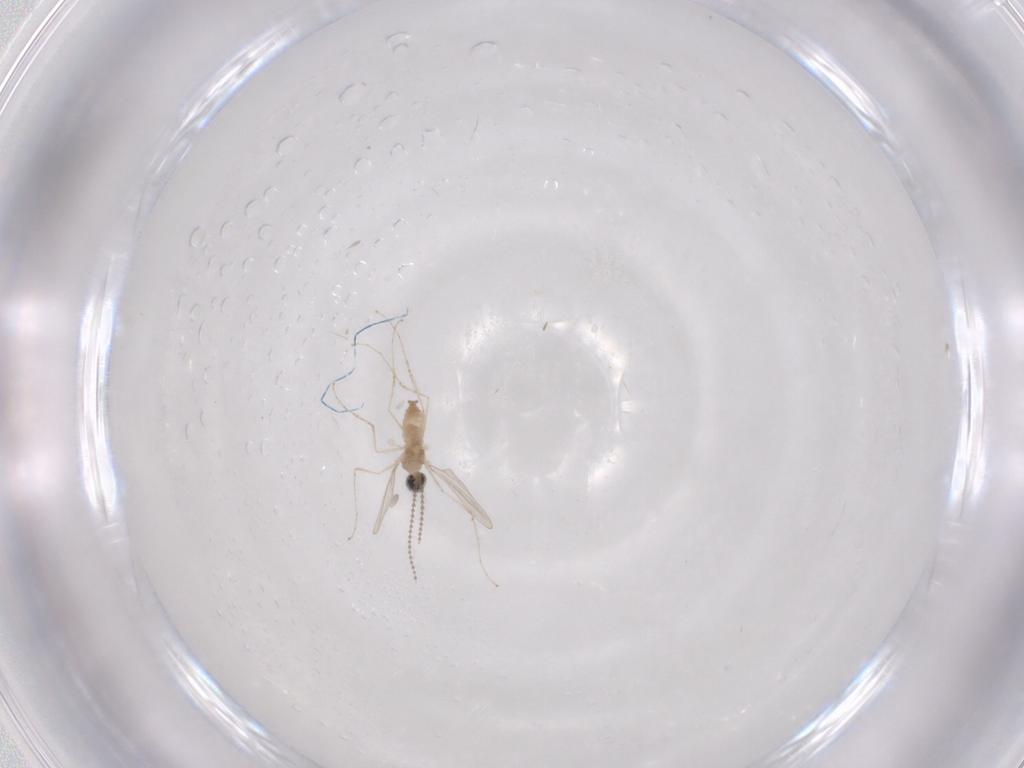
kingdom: Animalia
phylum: Arthropoda
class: Insecta
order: Diptera
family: Cecidomyiidae
